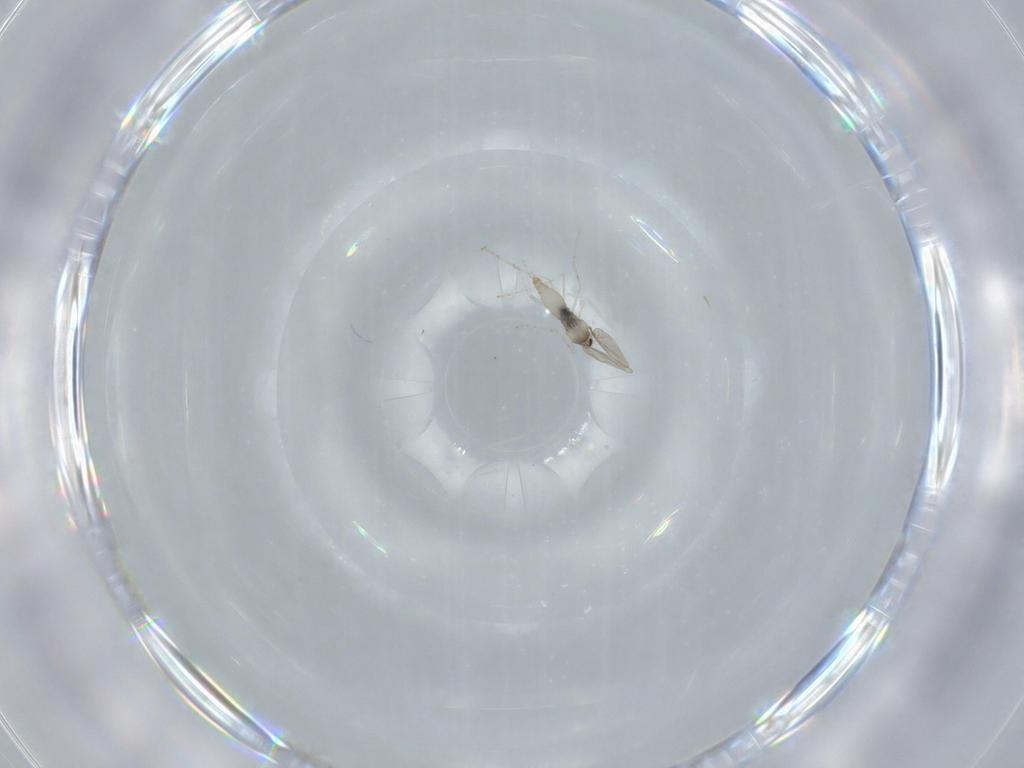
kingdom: Animalia
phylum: Arthropoda
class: Insecta
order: Diptera
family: Cecidomyiidae
